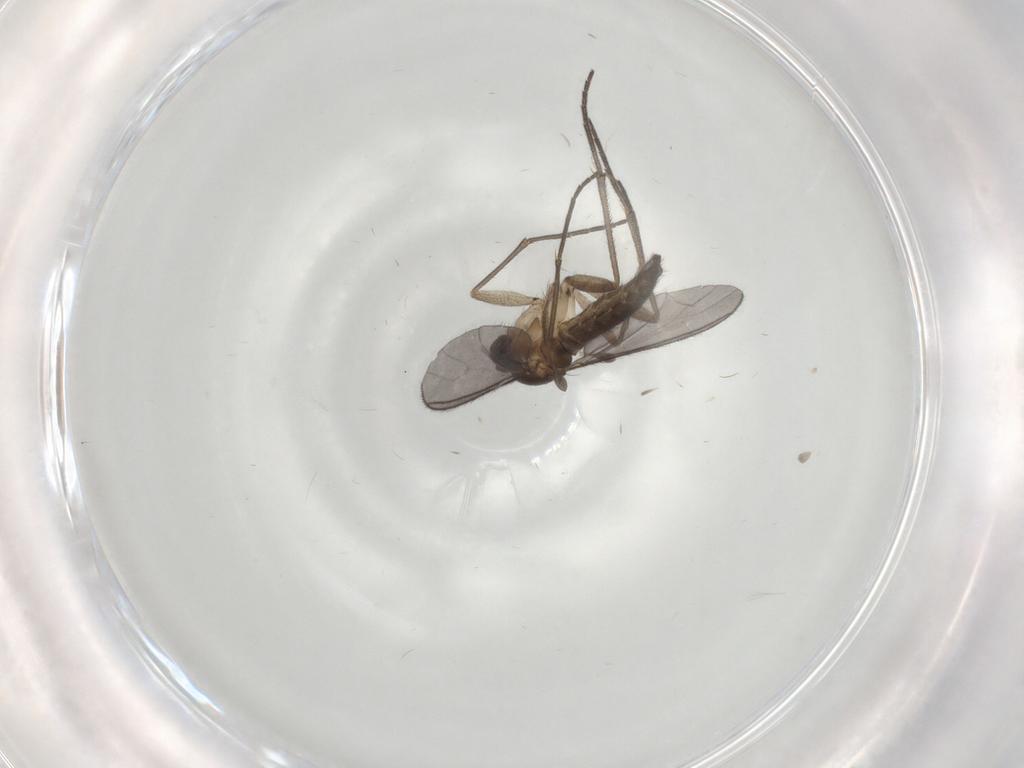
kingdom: Animalia
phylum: Arthropoda
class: Insecta
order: Diptera
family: Sciaridae
